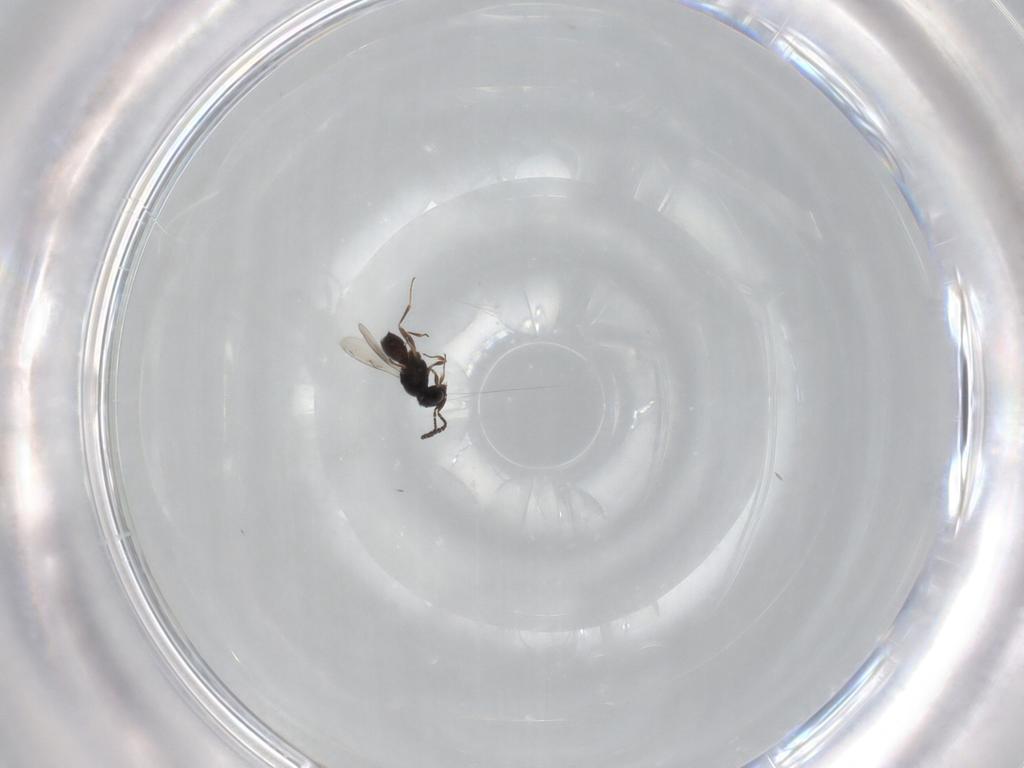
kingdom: Animalia
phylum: Arthropoda
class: Insecta
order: Hymenoptera
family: Scelionidae
